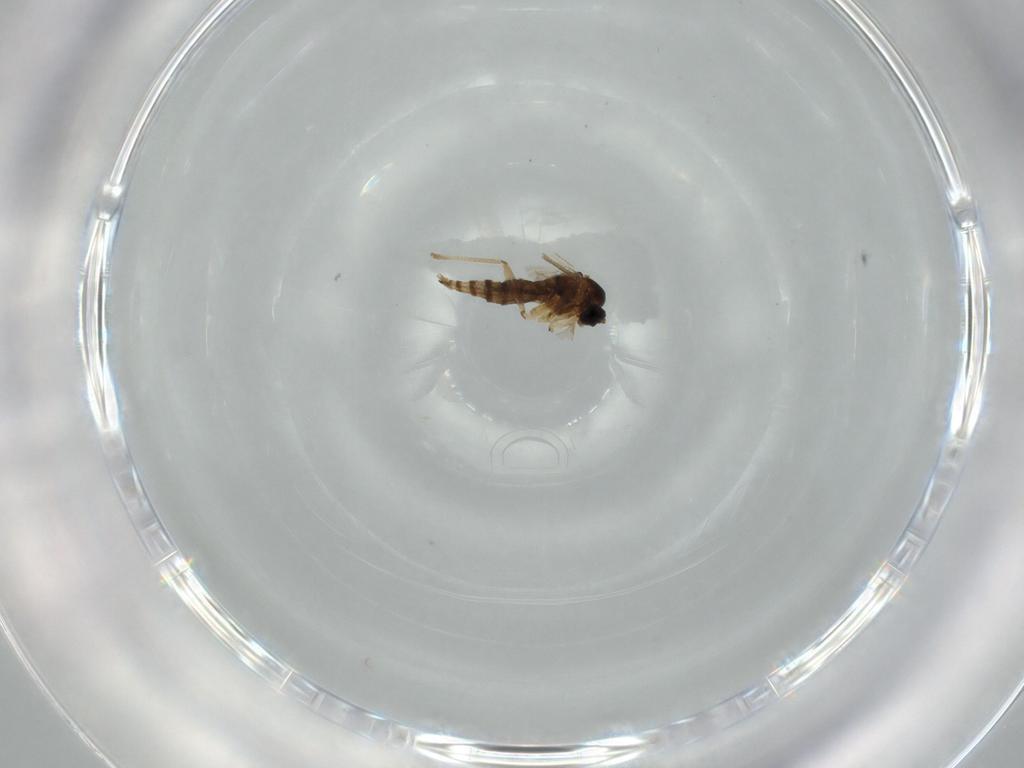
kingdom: Animalia
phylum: Arthropoda
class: Insecta
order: Diptera
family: Sciaridae
